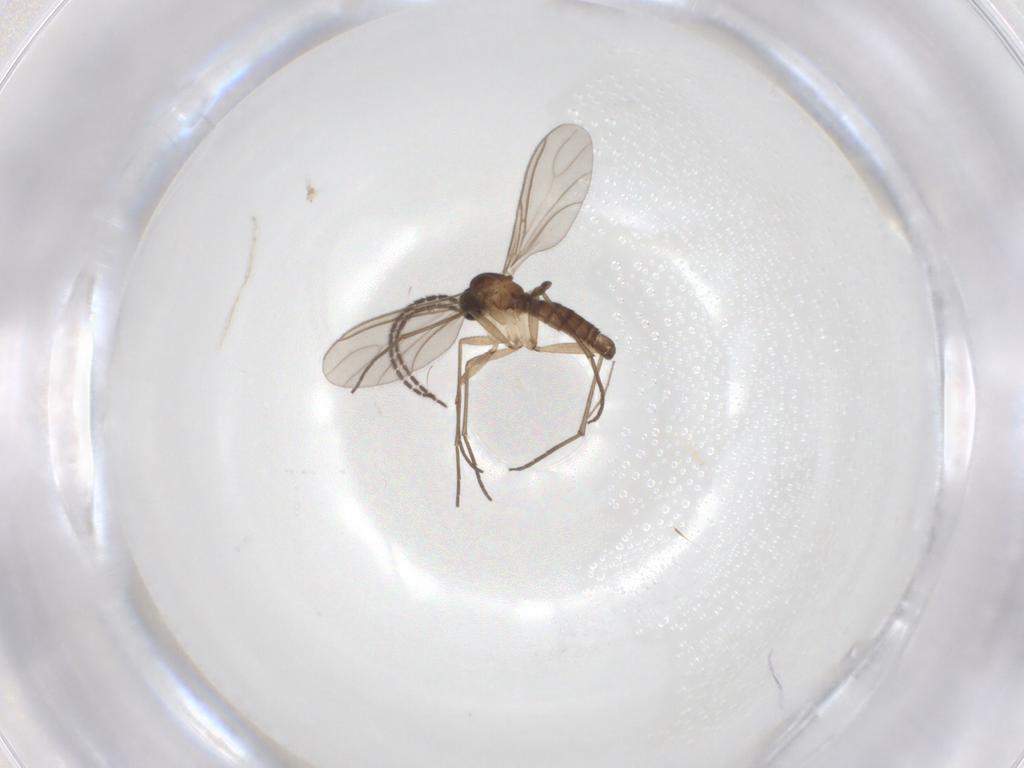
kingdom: Animalia
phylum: Arthropoda
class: Insecta
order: Diptera
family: Sciaridae
